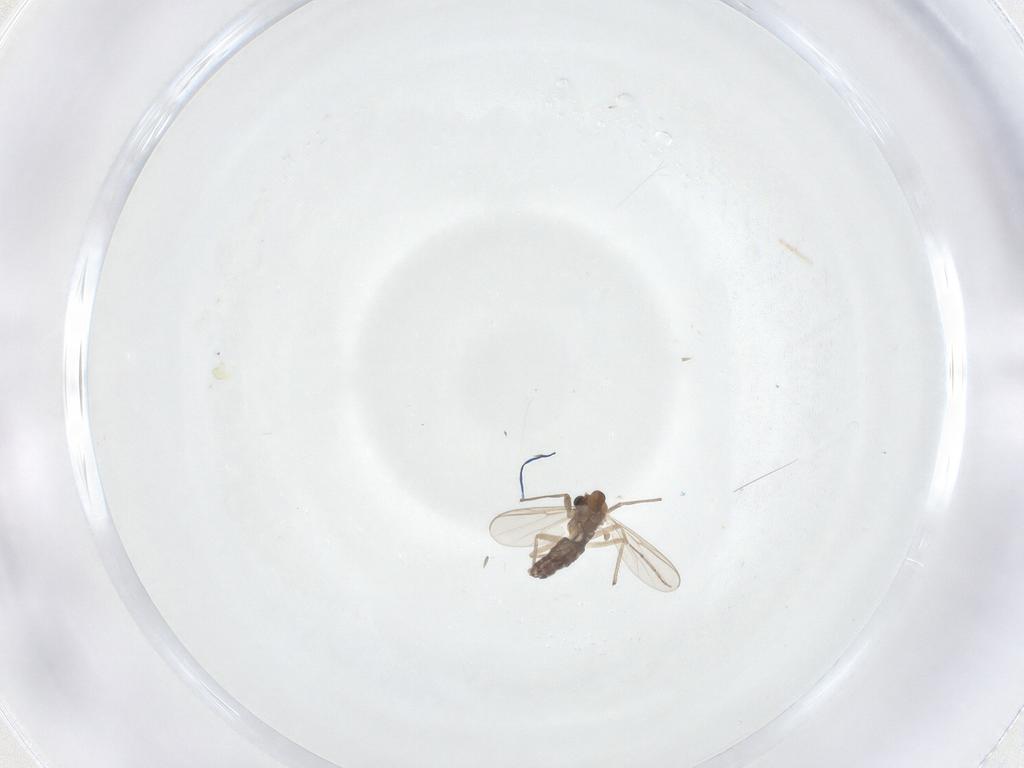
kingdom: Animalia
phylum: Arthropoda
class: Insecta
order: Diptera
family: Chironomidae
